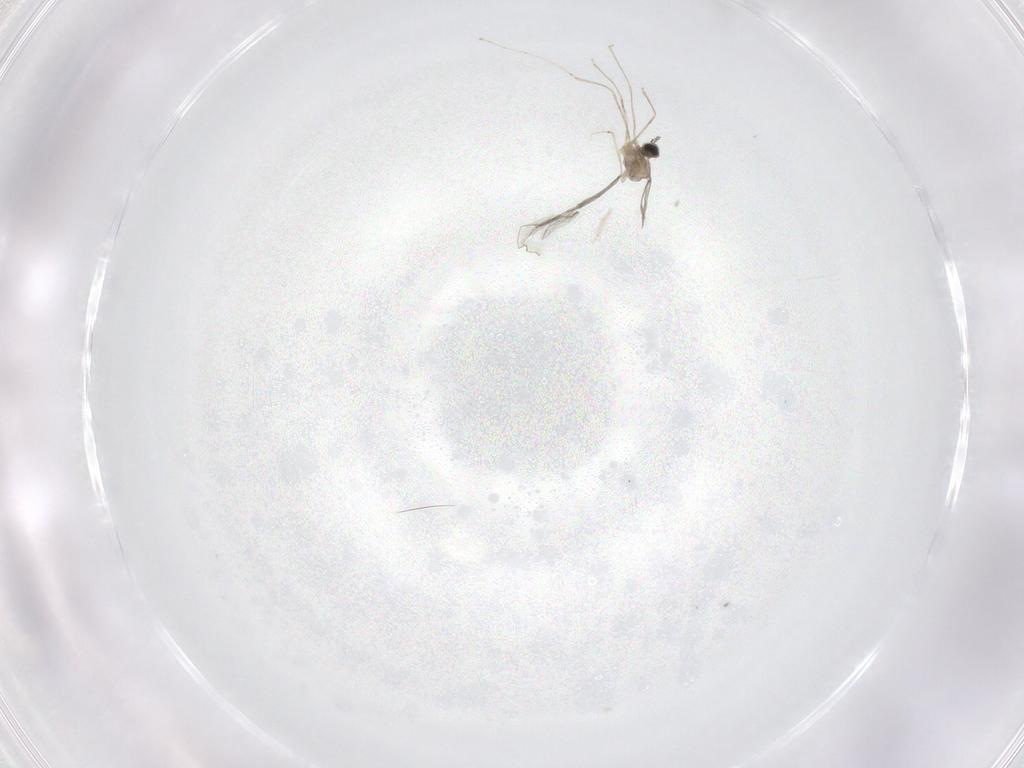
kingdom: Animalia
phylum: Arthropoda
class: Insecta
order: Diptera
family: Cecidomyiidae
